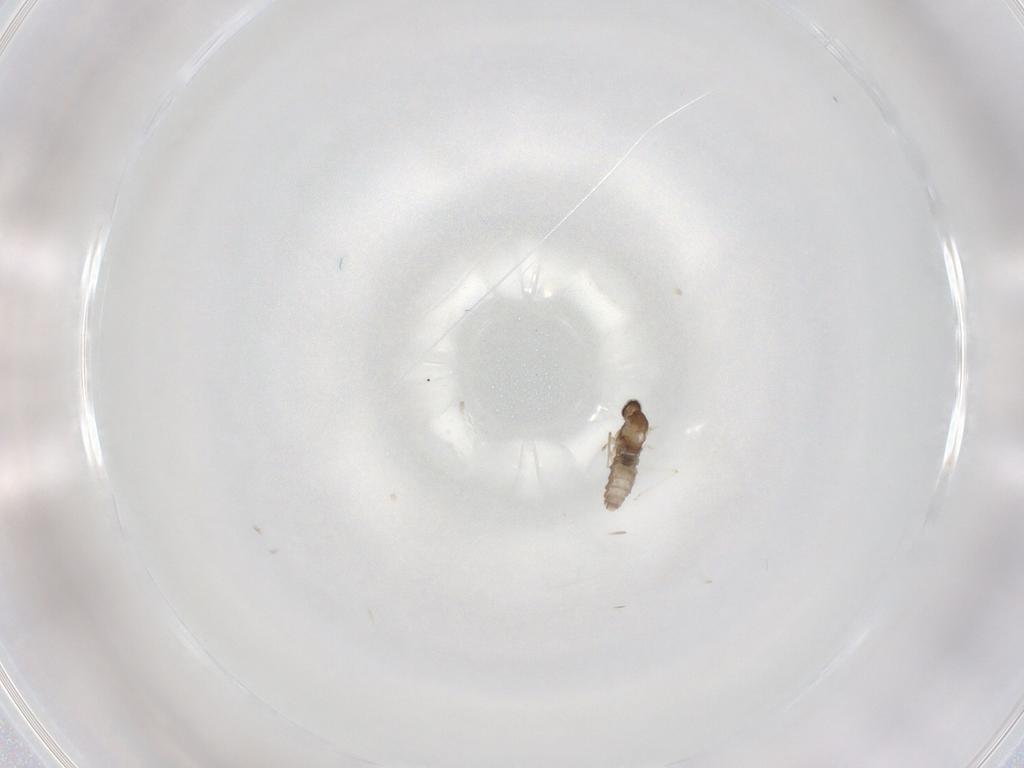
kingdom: Animalia
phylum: Arthropoda
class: Insecta
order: Diptera
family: Cecidomyiidae
